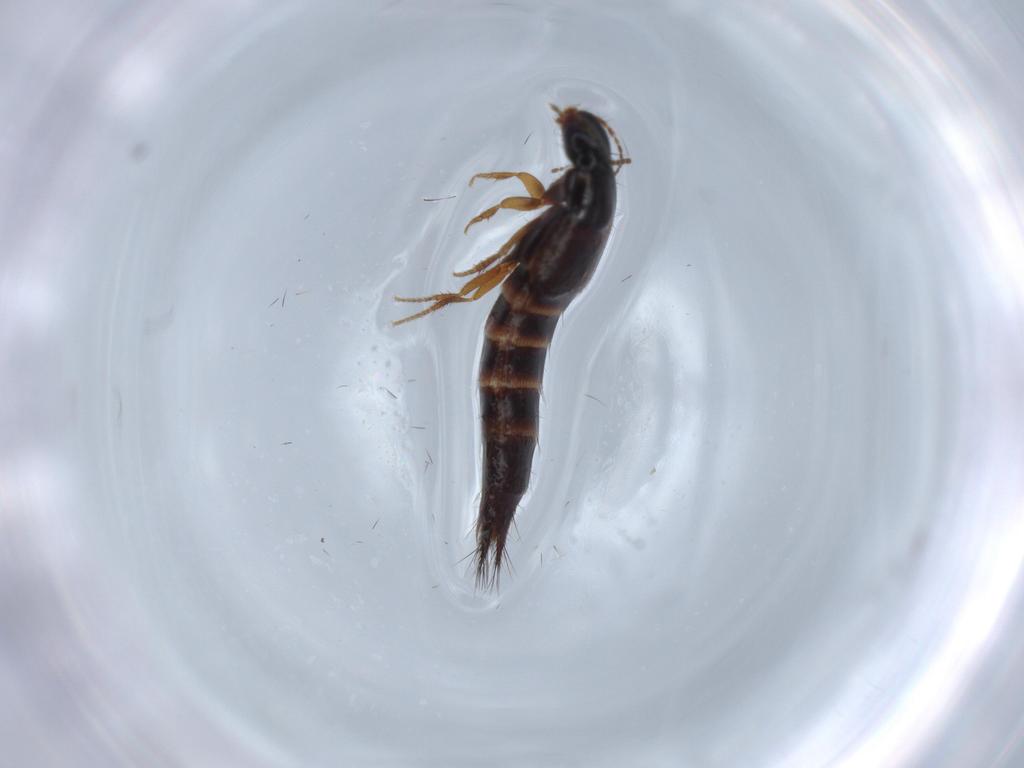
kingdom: Animalia
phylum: Arthropoda
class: Insecta
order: Coleoptera
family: Staphylinidae
